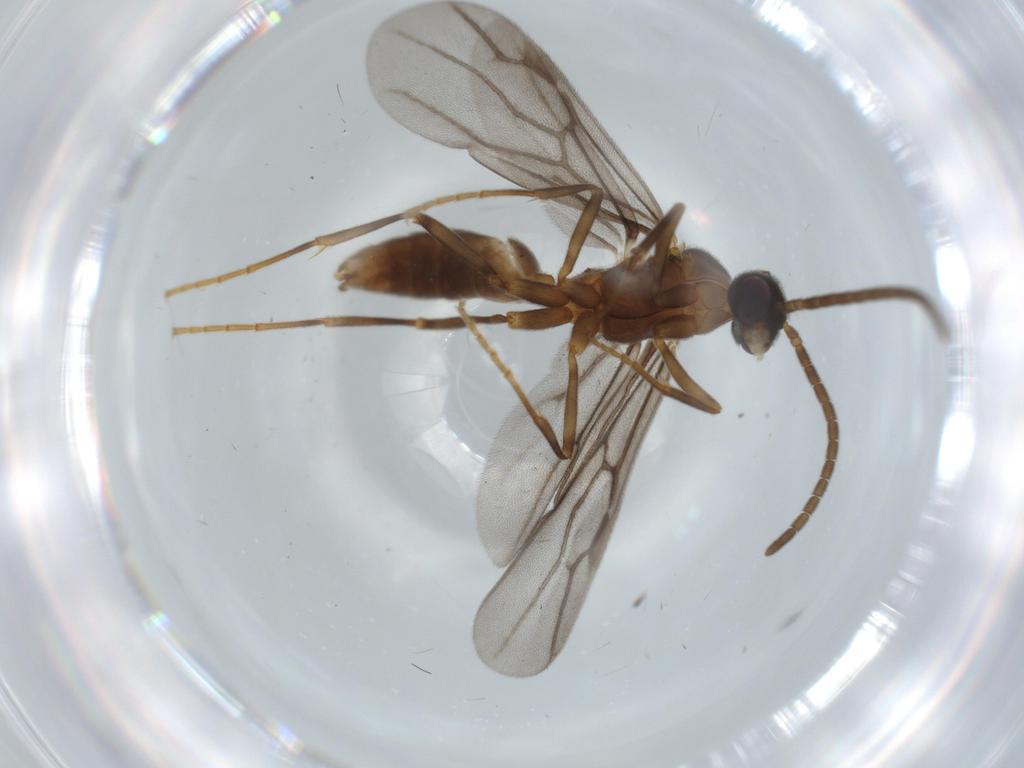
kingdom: Animalia
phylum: Arthropoda
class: Insecta
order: Hymenoptera
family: Formicidae
